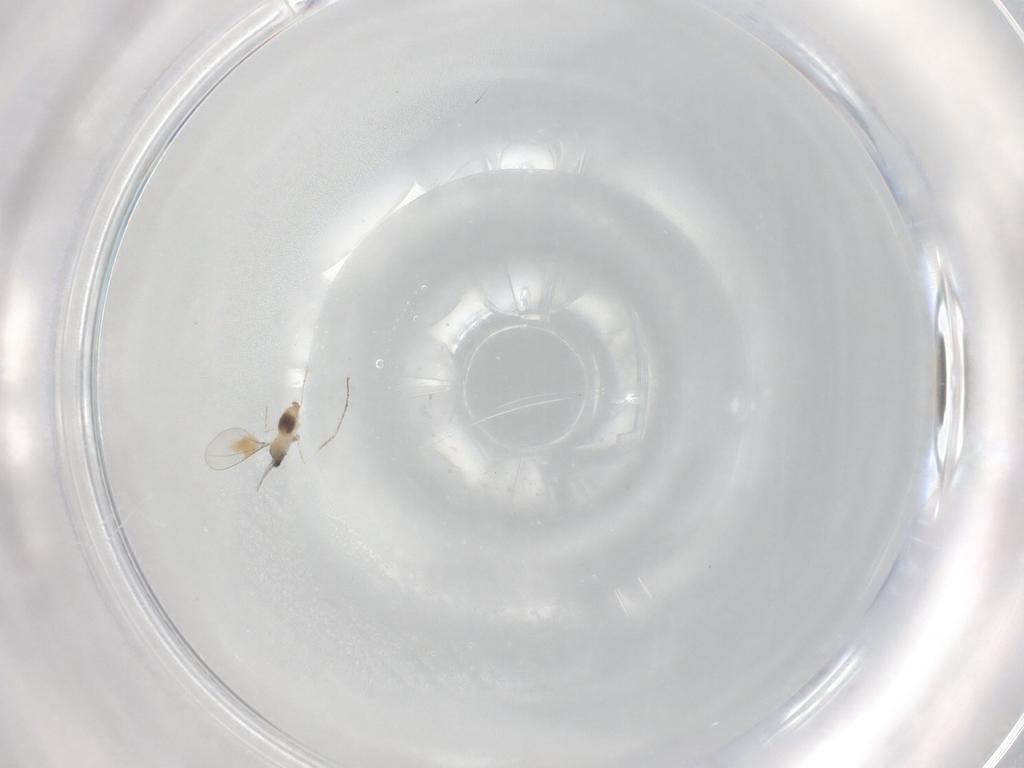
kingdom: Animalia
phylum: Arthropoda
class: Insecta
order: Diptera
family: Cecidomyiidae
